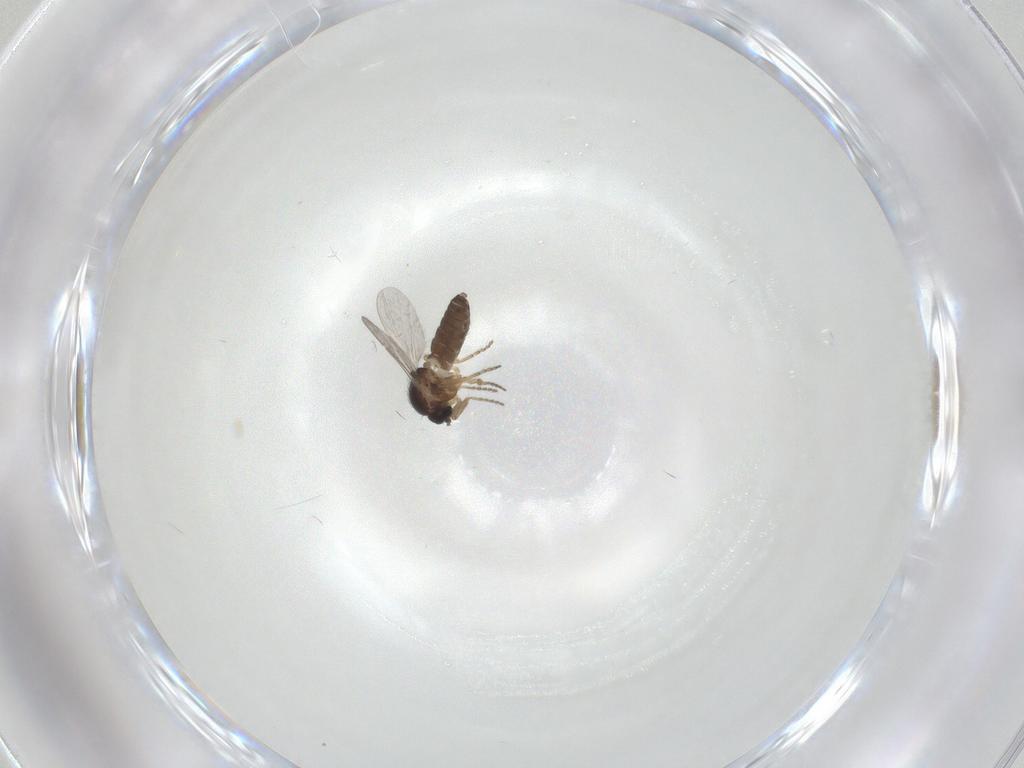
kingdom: Animalia
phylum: Arthropoda
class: Insecta
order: Diptera
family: Ceratopogonidae
